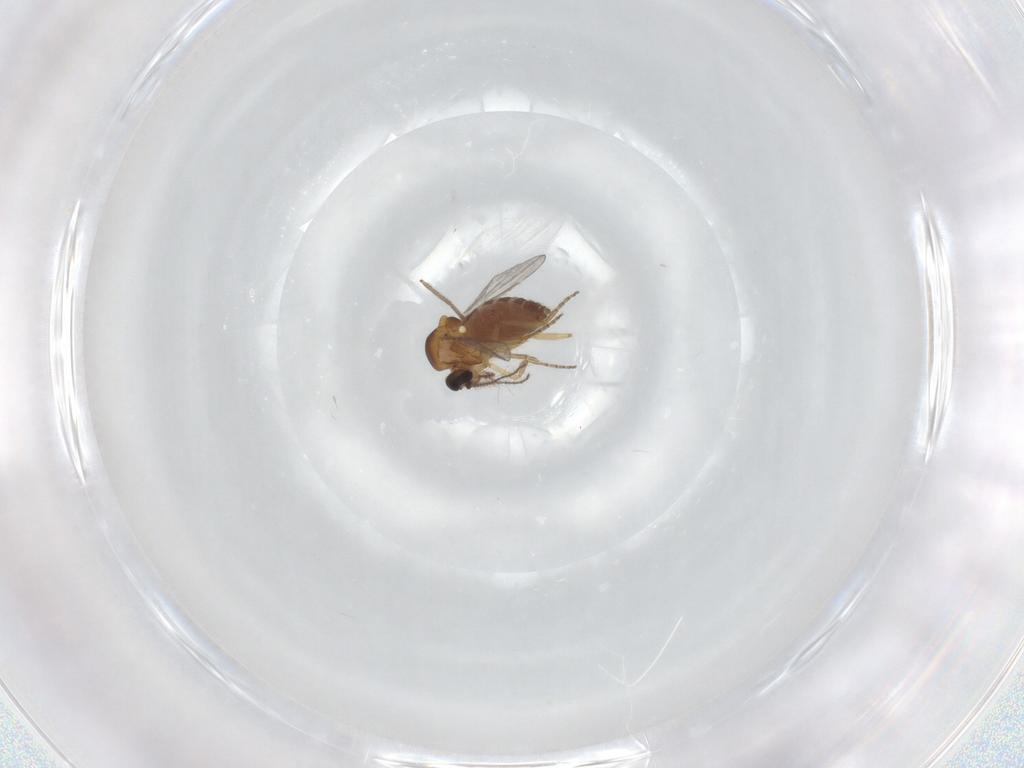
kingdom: Animalia
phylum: Arthropoda
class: Insecta
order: Diptera
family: Chironomidae
